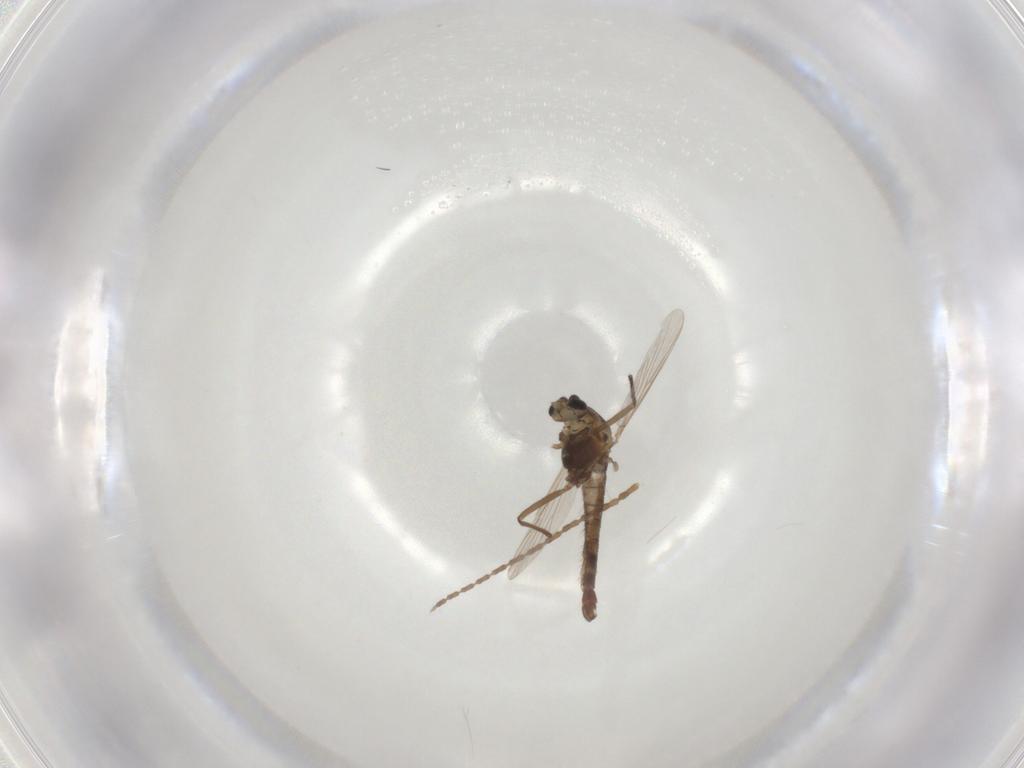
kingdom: Animalia
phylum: Arthropoda
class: Insecta
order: Diptera
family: Chironomidae
